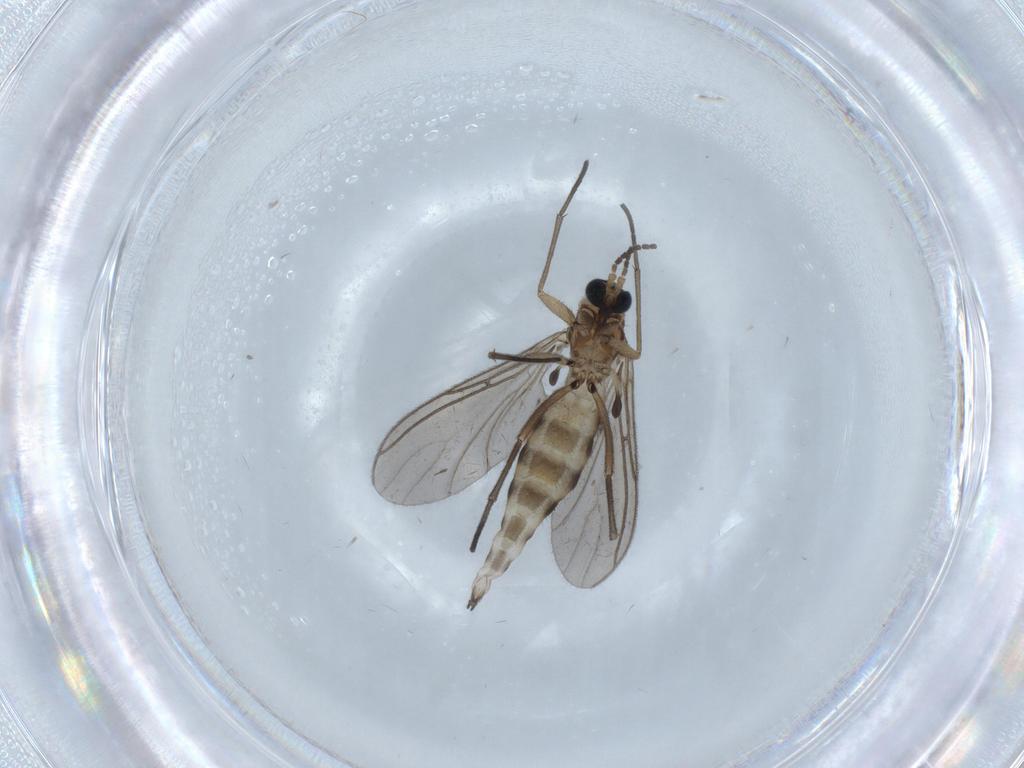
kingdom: Animalia
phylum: Arthropoda
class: Insecta
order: Diptera
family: Sciaridae
